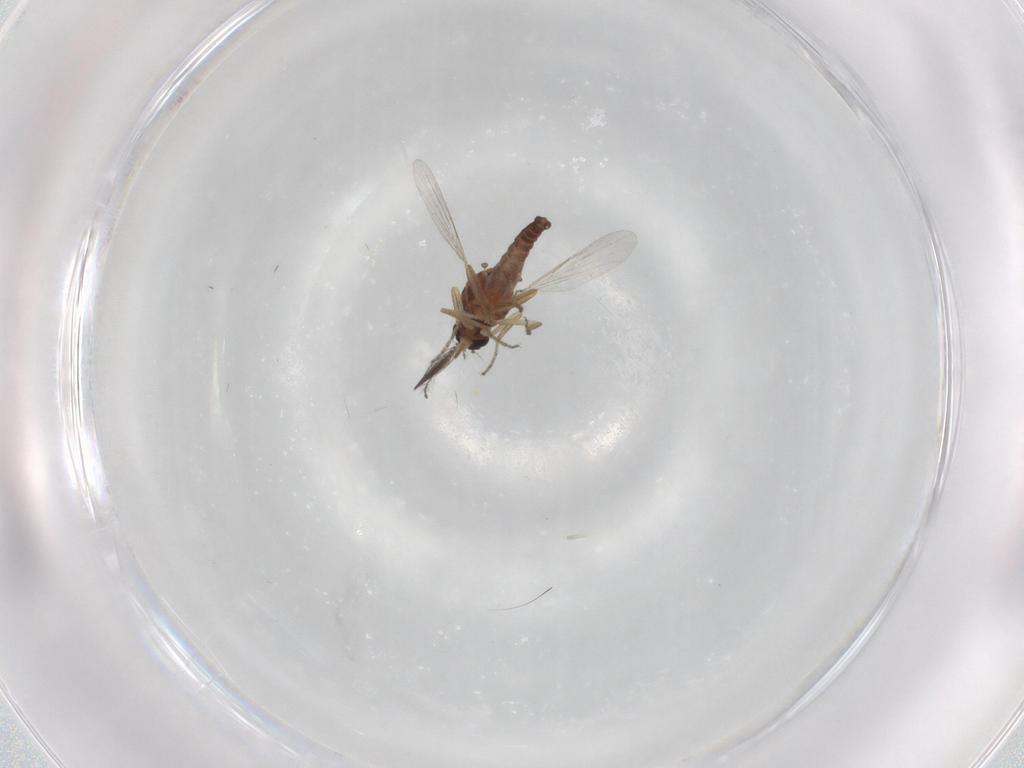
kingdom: Animalia
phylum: Arthropoda
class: Insecta
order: Diptera
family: Ceratopogonidae
